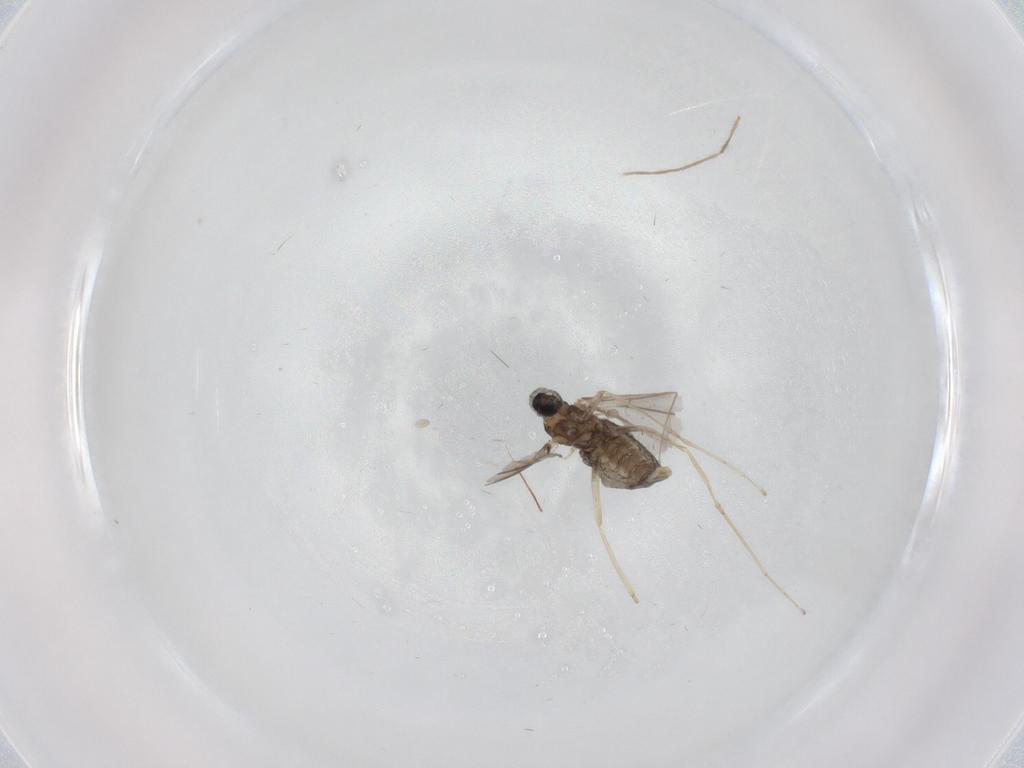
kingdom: Animalia
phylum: Arthropoda
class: Insecta
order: Diptera
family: Cecidomyiidae
